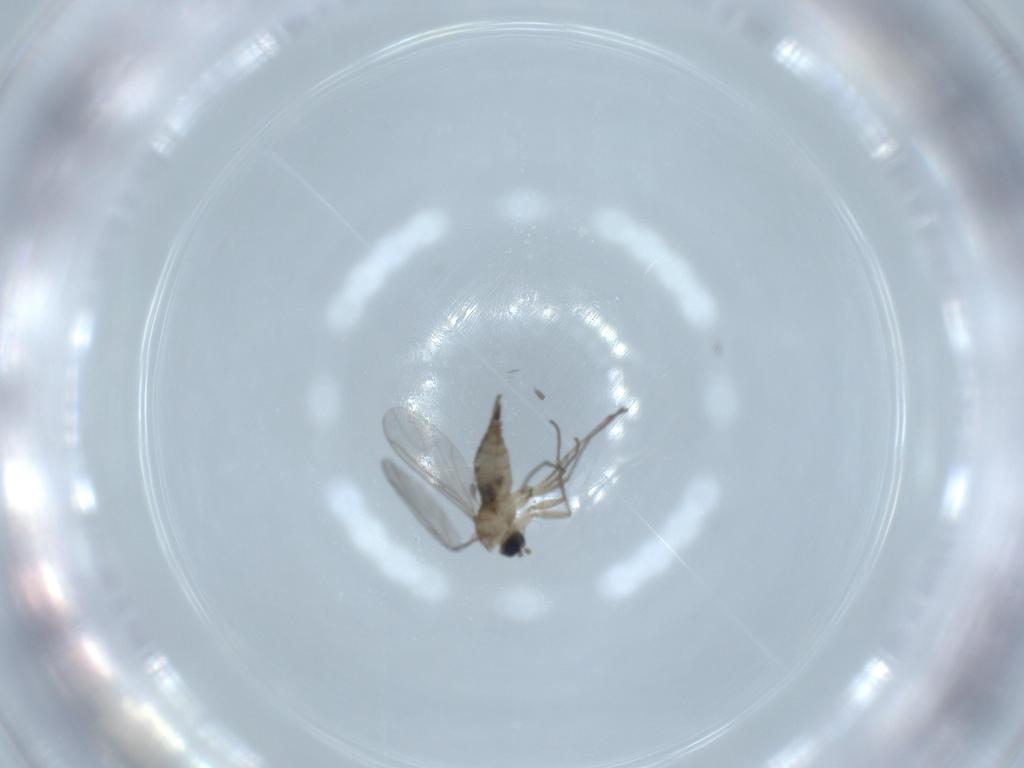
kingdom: Animalia
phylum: Arthropoda
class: Insecta
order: Diptera
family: Sciaridae
